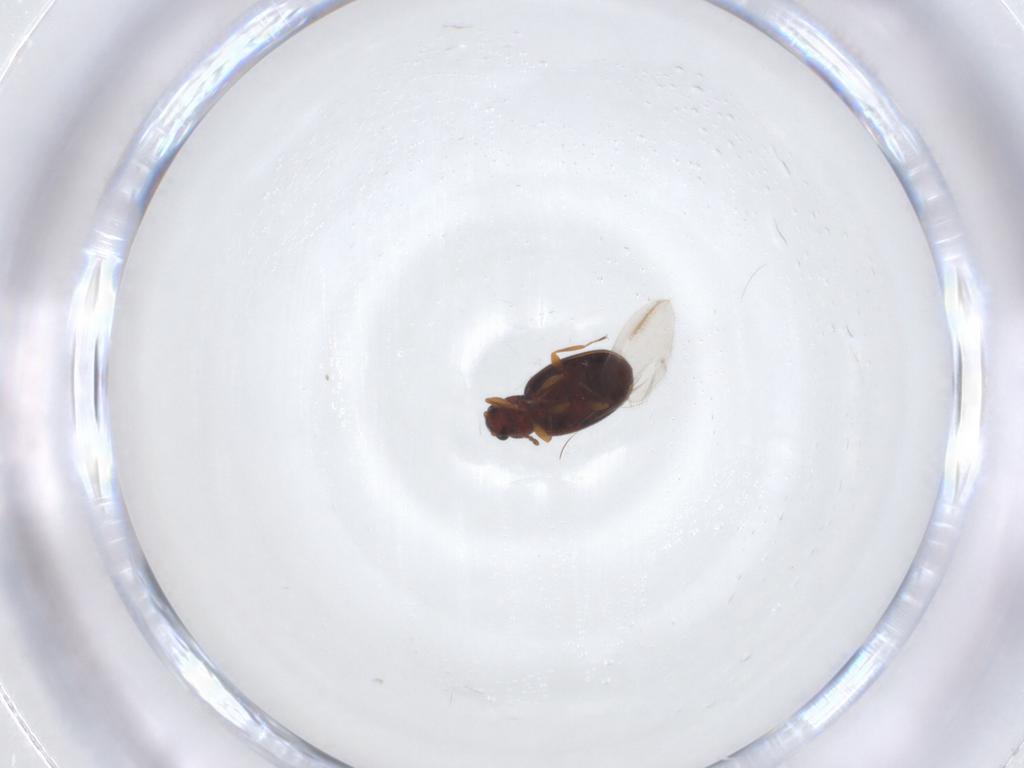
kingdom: Animalia
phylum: Arthropoda
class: Insecta
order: Coleoptera
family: Latridiidae
